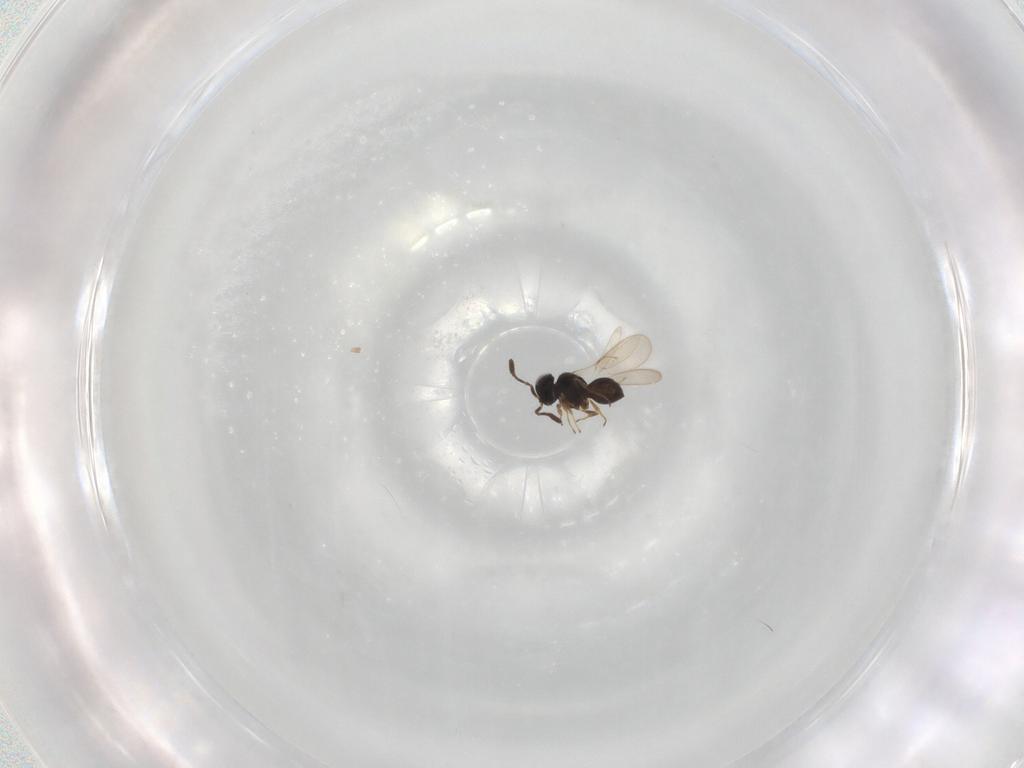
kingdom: Animalia
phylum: Arthropoda
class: Insecta
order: Hymenoptera
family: Scelionidae
